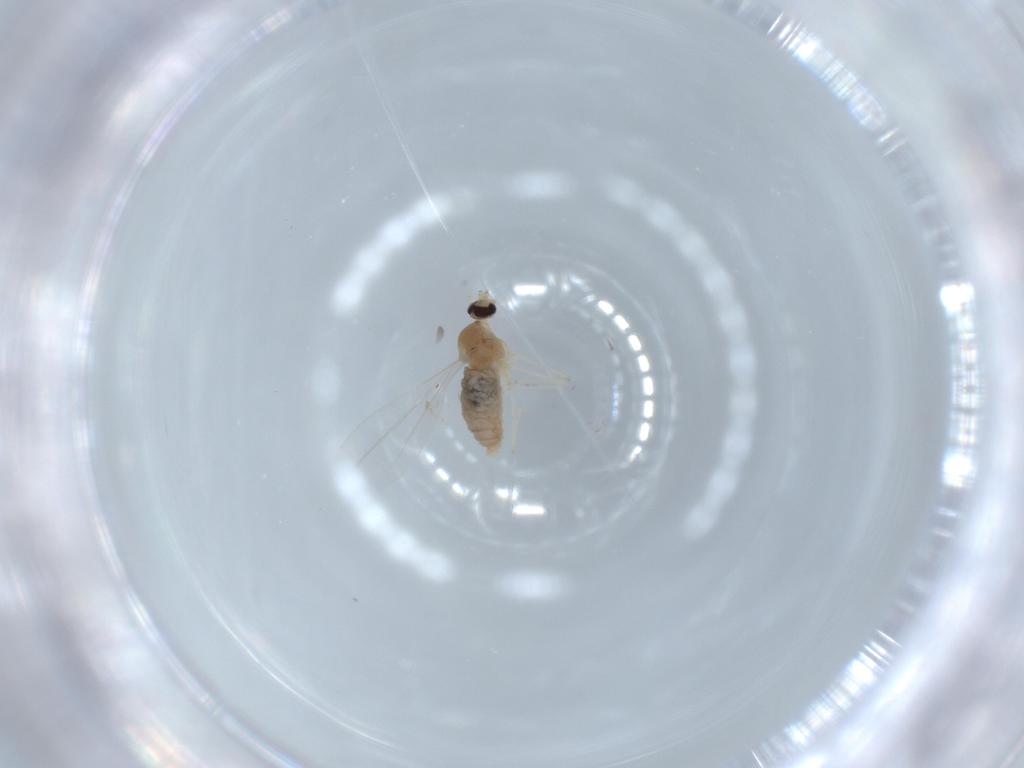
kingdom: Animalia
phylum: Arthropoda
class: Insecta
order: Diptera
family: Cecidomyiidae
